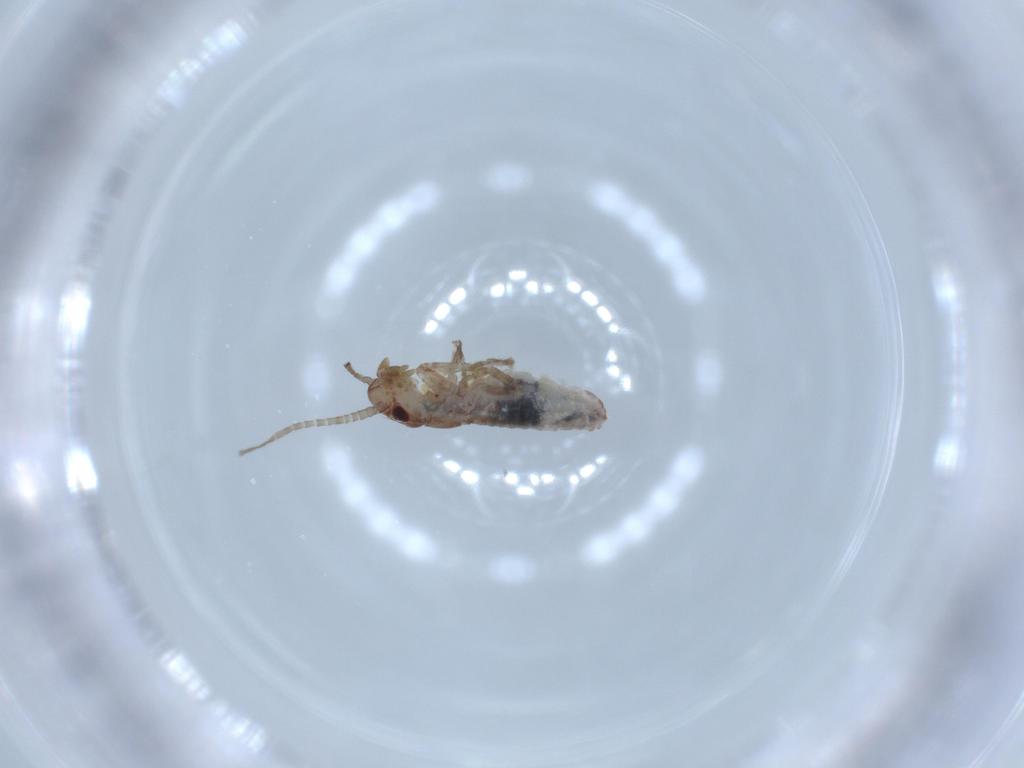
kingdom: Animalia
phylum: Arthropoda
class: Insecta
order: Orthoptera
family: Mogoplistidae
